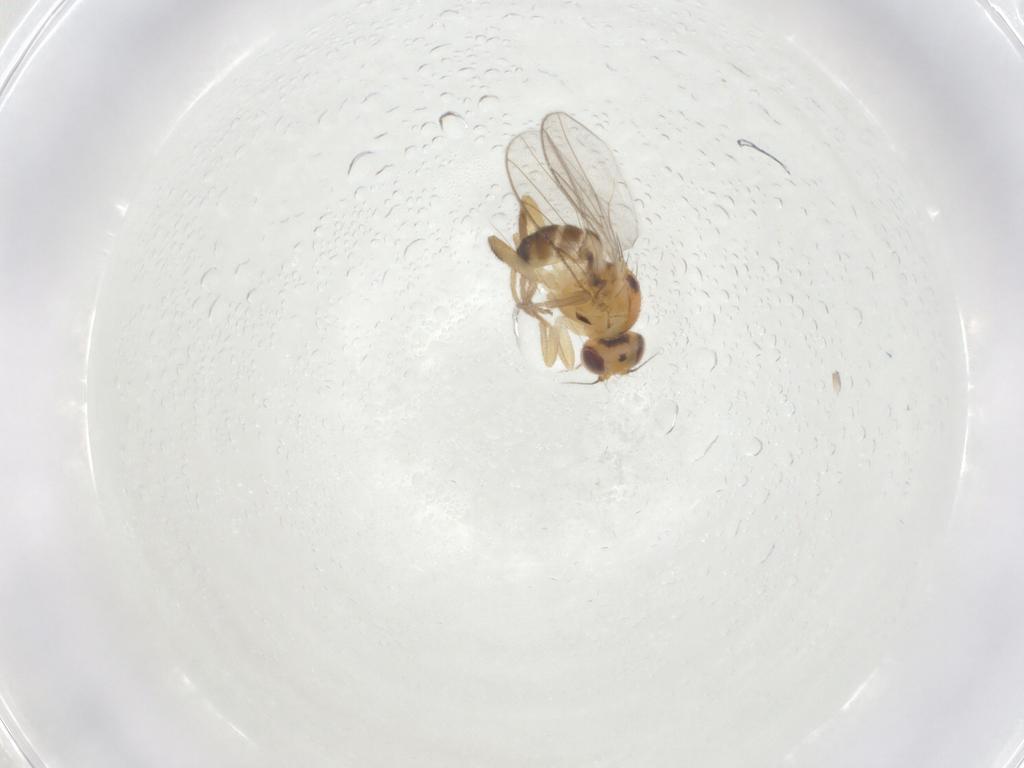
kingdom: Animalia
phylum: Arthropoda
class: Insecta
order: Diptera
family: Chloropidae
